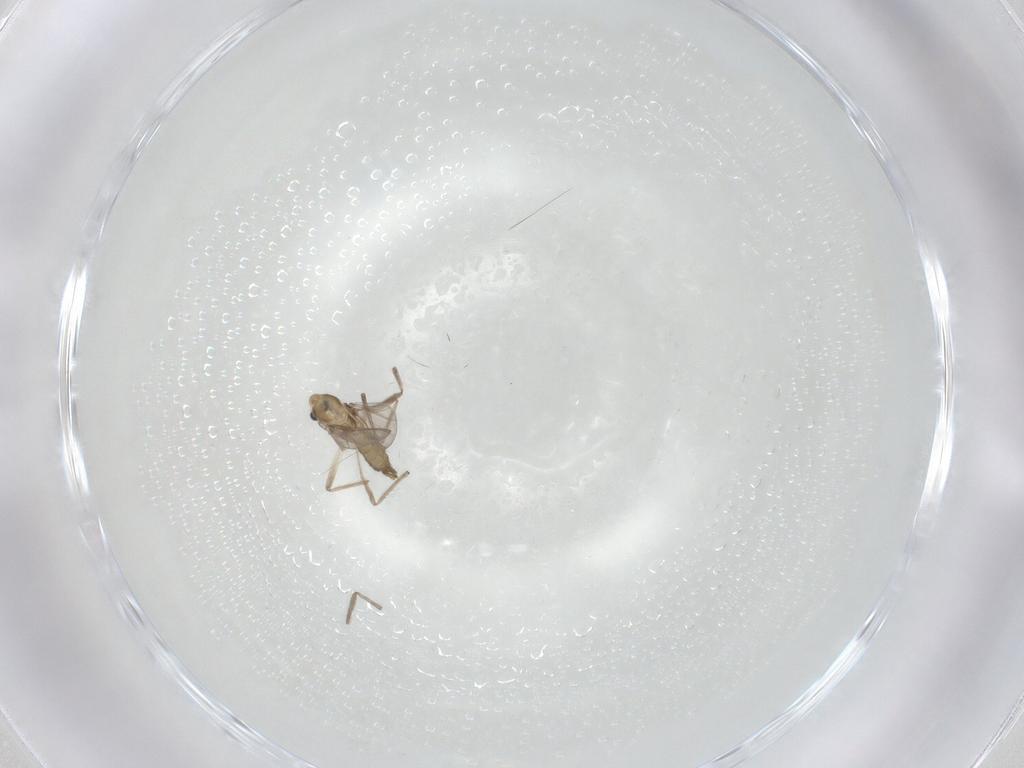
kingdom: Animalia
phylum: Arthropoda
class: Insecta
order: Diptera
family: Chironomidae
